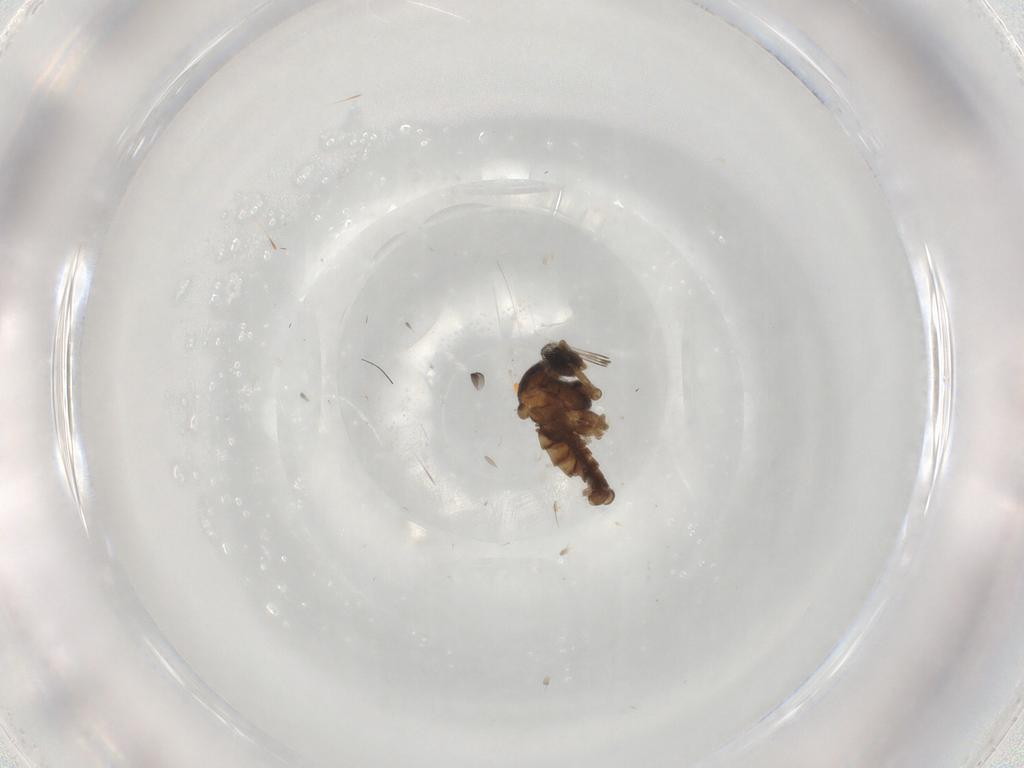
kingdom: Animalia
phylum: Arthropoda
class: Insecta
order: Diptera
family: Cecidomyiidae
